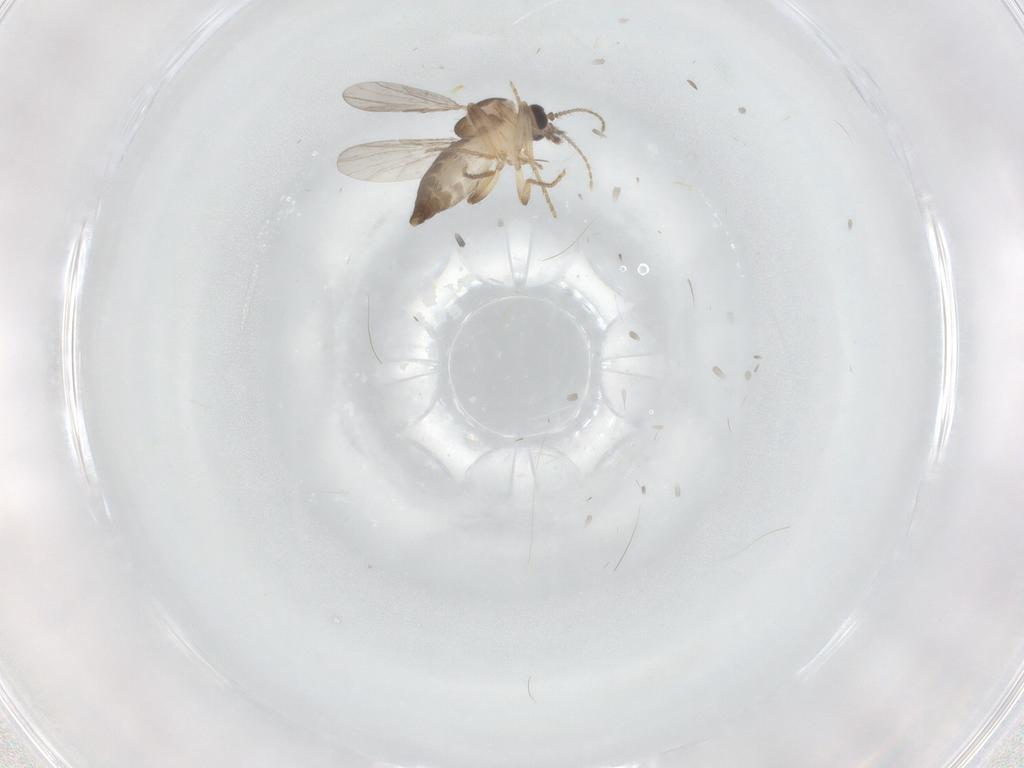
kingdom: Animalia
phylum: Arthropoda
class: Insecta
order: Diptera
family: Ceratopogonidae
